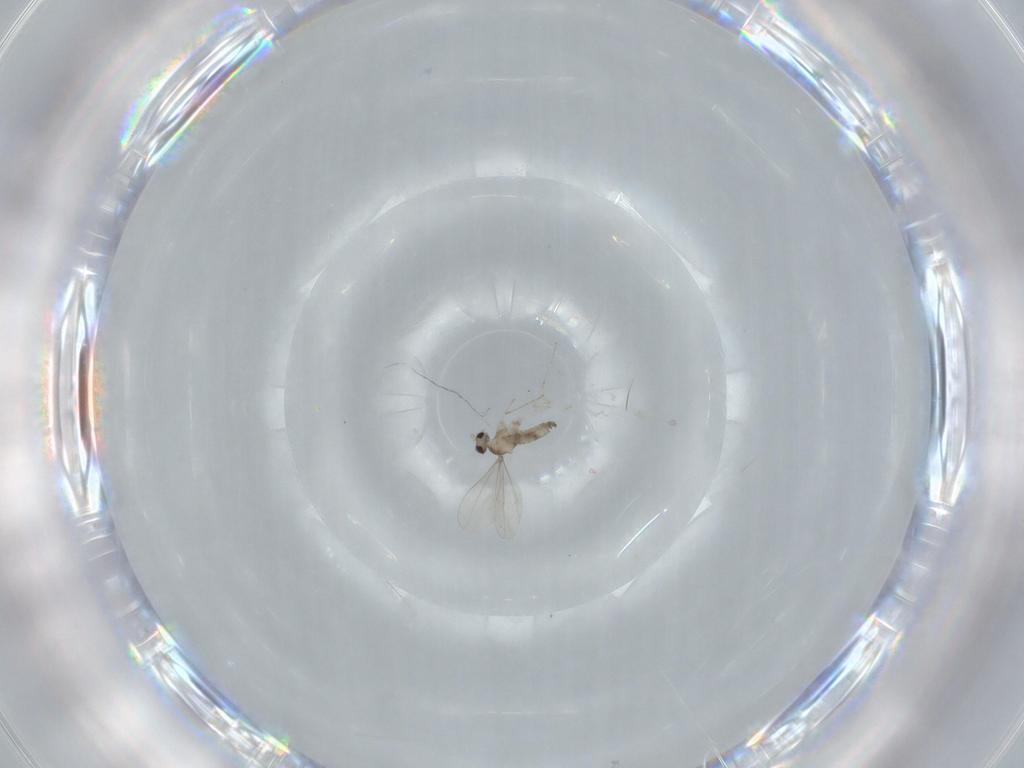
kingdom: Animalia
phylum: Arthropoda
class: Insecta
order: Diptera
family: Cecidomyiidae
